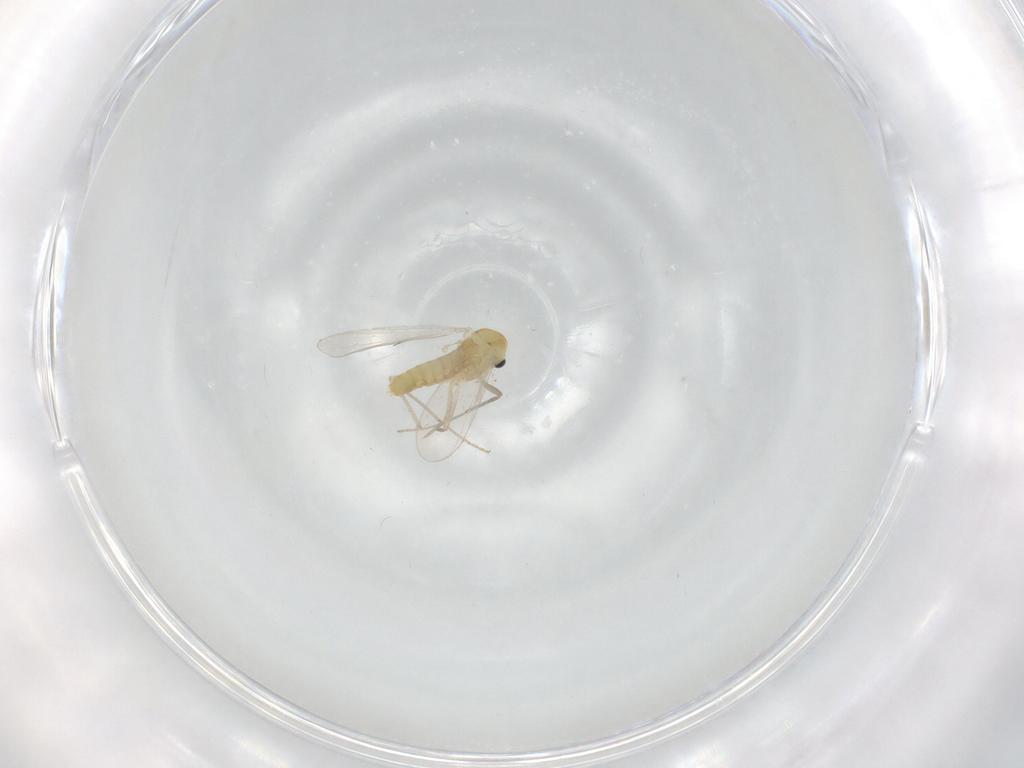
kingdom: Animalia
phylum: Arthropoda
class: Insecta
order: Diptera
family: Chironomidae
